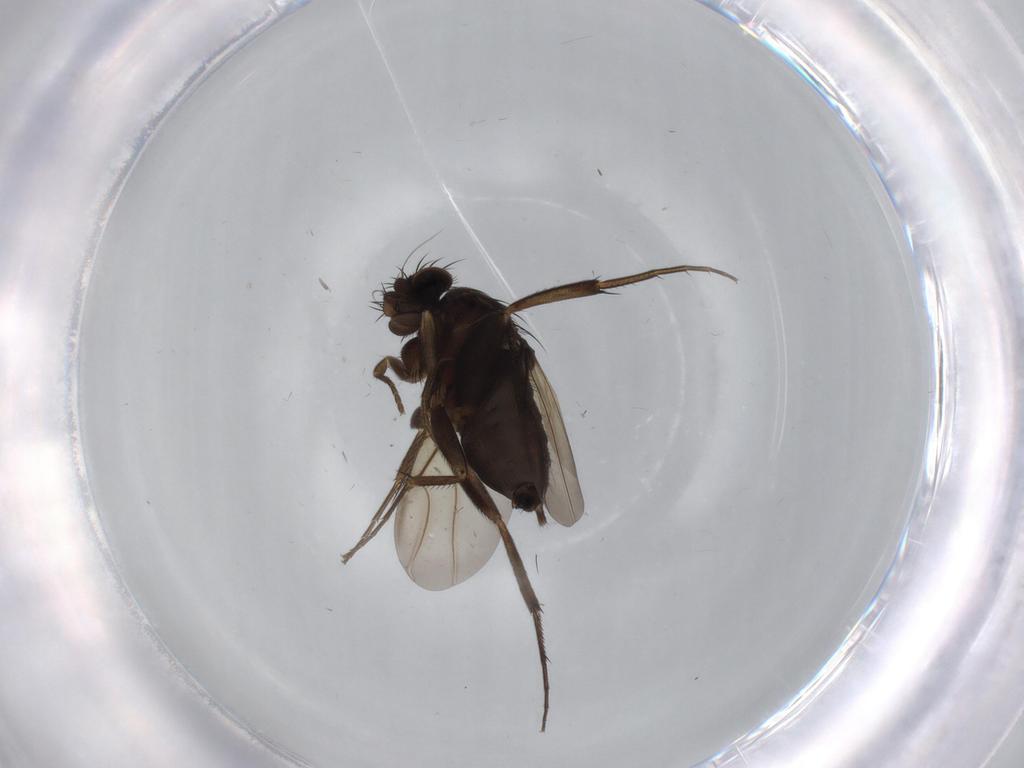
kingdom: Animalia
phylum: Arthropoda
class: Insecta
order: Diptera
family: Phoridae
